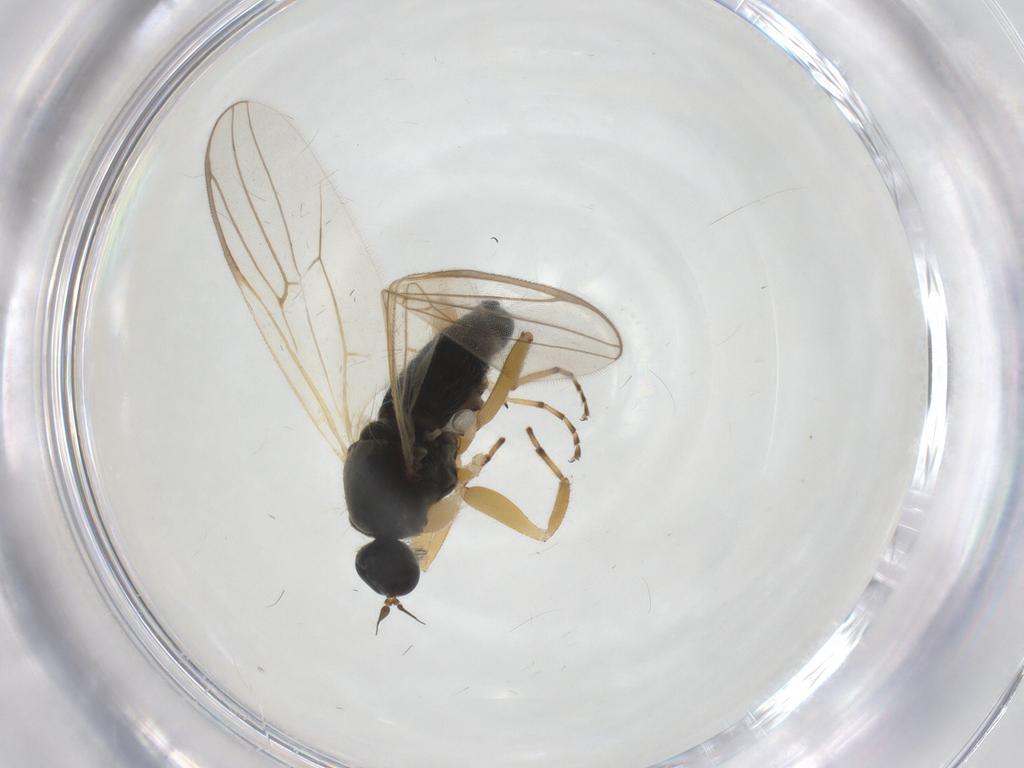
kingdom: Animalia
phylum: Arthropoda
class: Insecta
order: Diptera
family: Hybotidae
